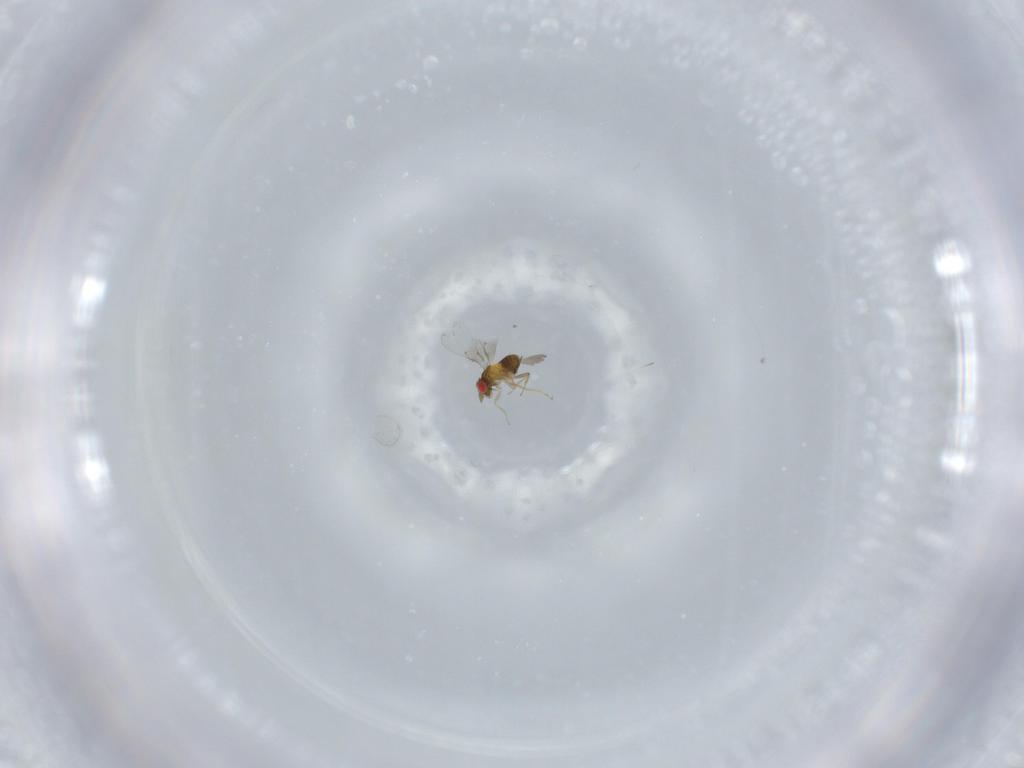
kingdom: Animalia
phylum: Arthropoda
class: Insecta
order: Hymenoptera
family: Trichogrammatidae
